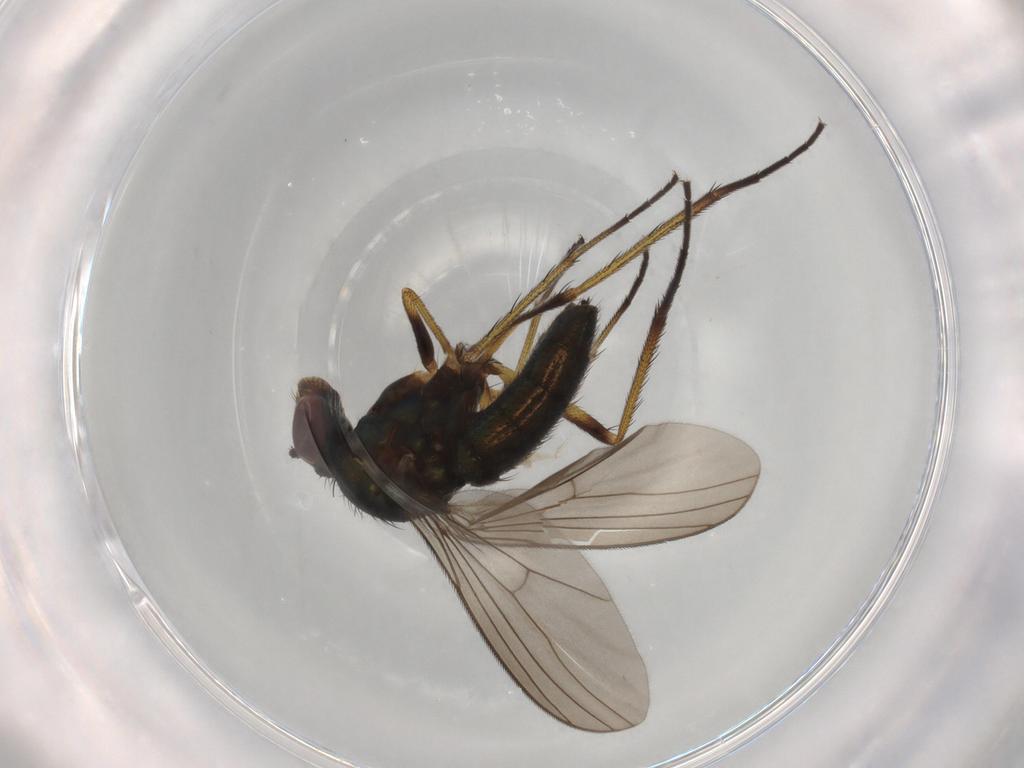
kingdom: Animalia
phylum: Arthropoda
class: Insecta
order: Diptera
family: Dolichopodidae
